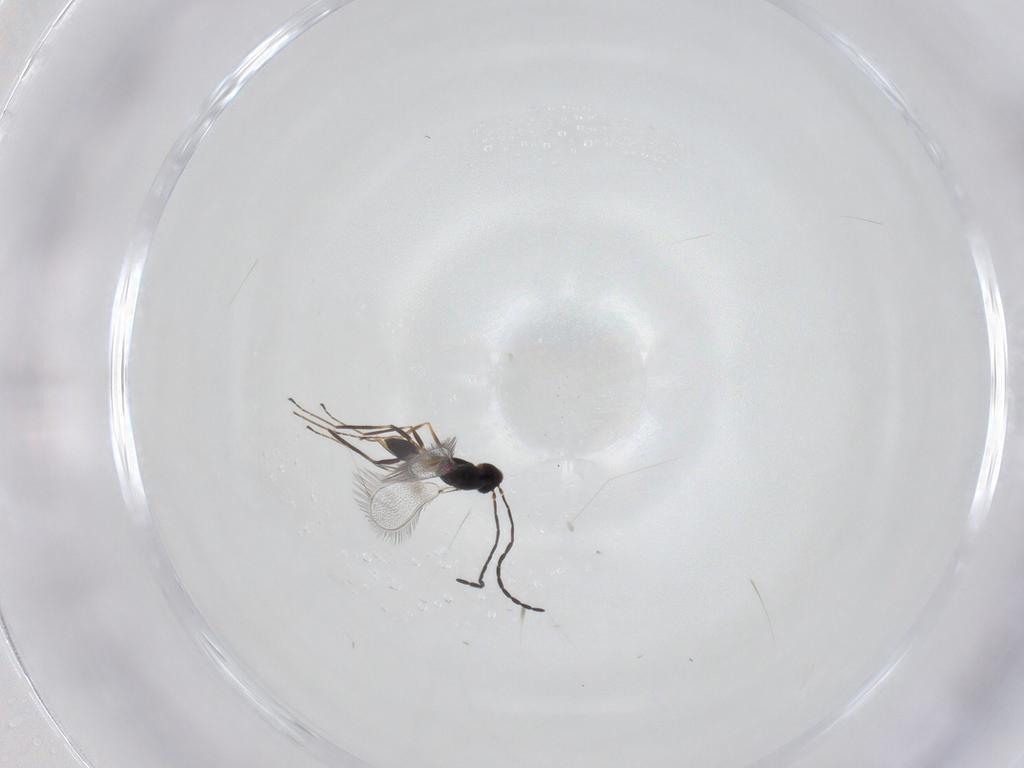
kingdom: Animalia
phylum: Arthropoda
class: Insecta
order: Hymenoptera
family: Mymaridae
